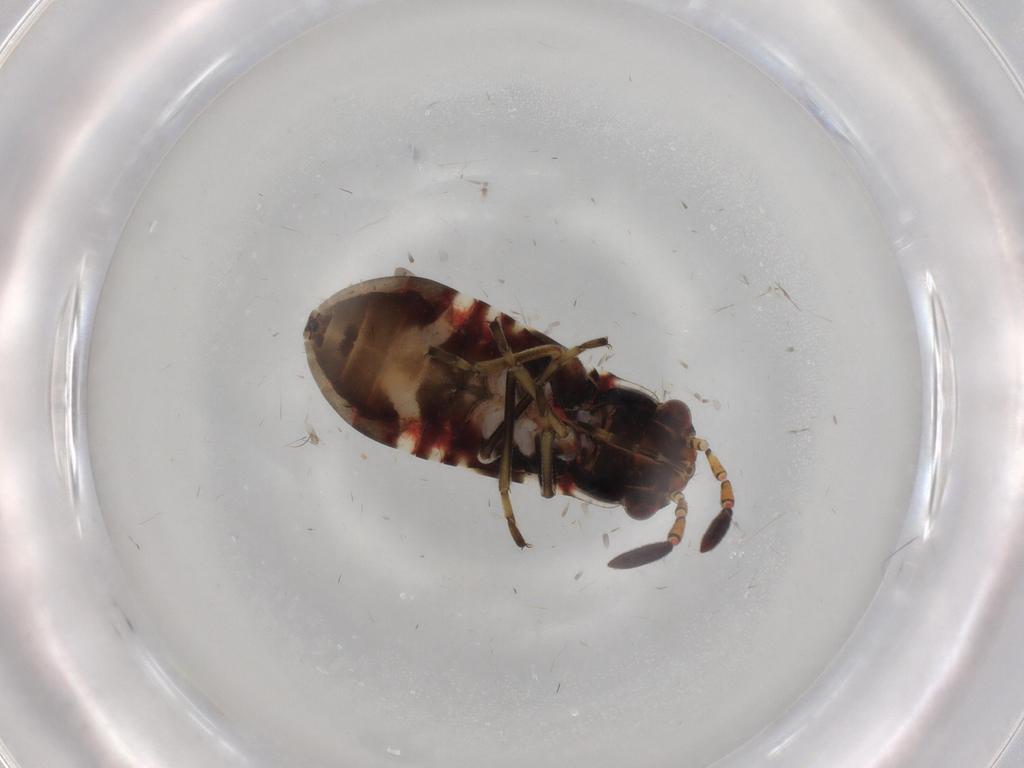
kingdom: Animalia
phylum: Arthropoda
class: Insecta
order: Hemiptera
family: Rhyparochromidae
